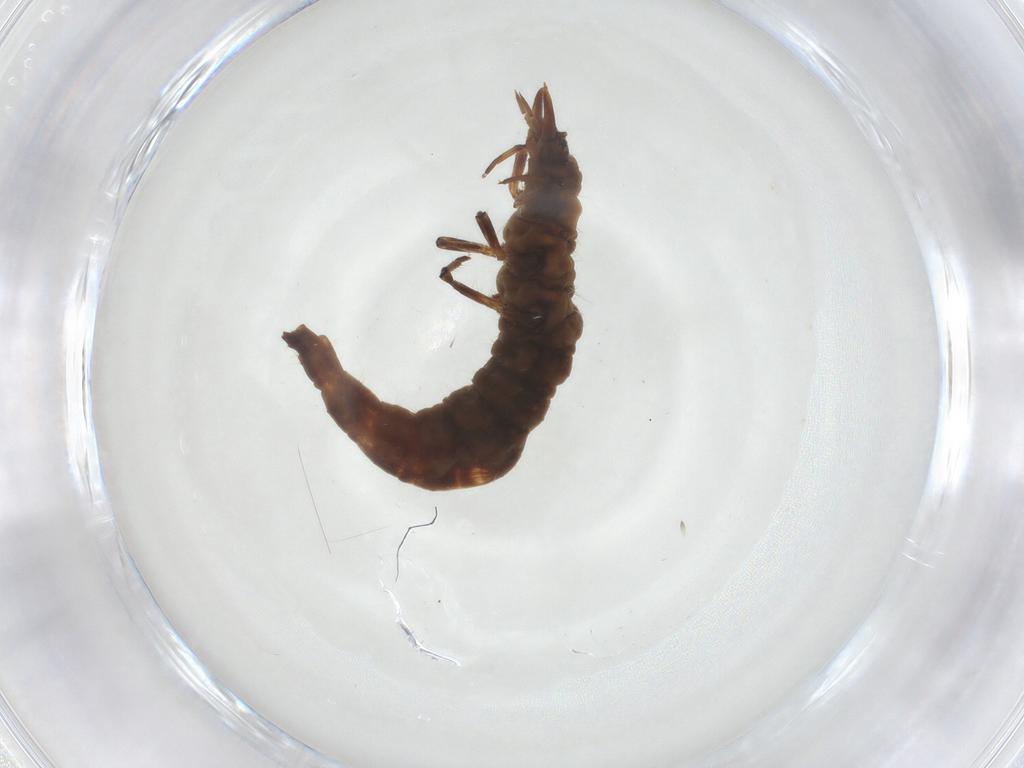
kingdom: Animalia
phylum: Arthropoda
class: Insecta
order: Diptera
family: Chloropidae
